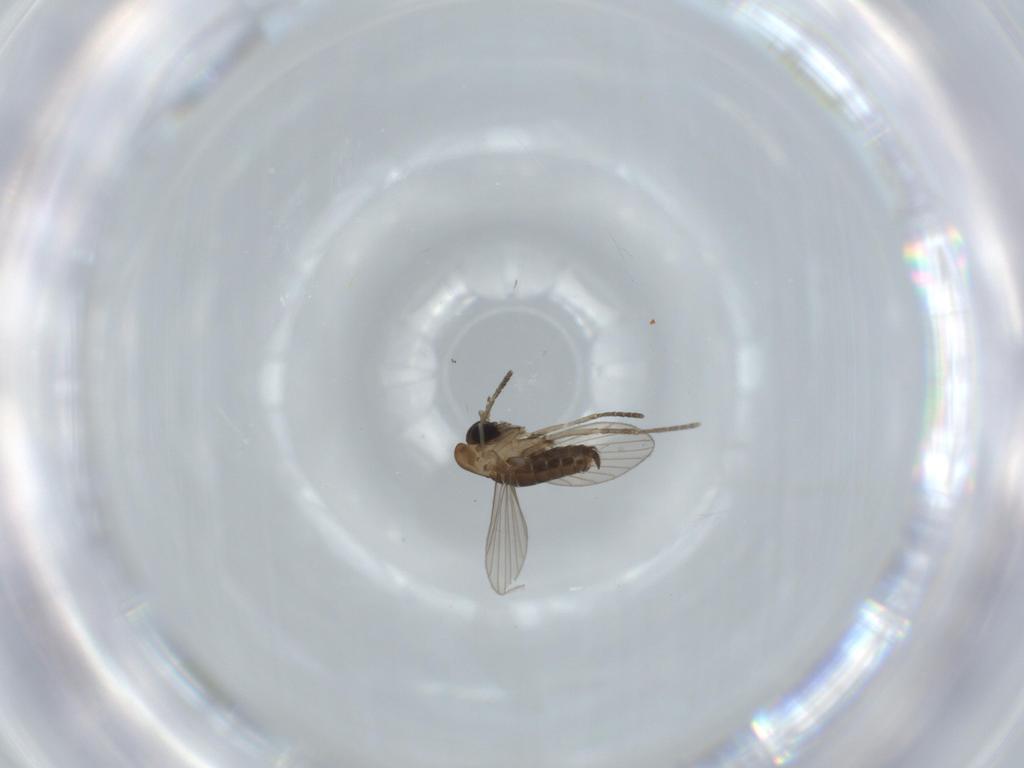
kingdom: Animalia
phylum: Arthropoda
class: Insecta
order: Diptera
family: Psychodidae
